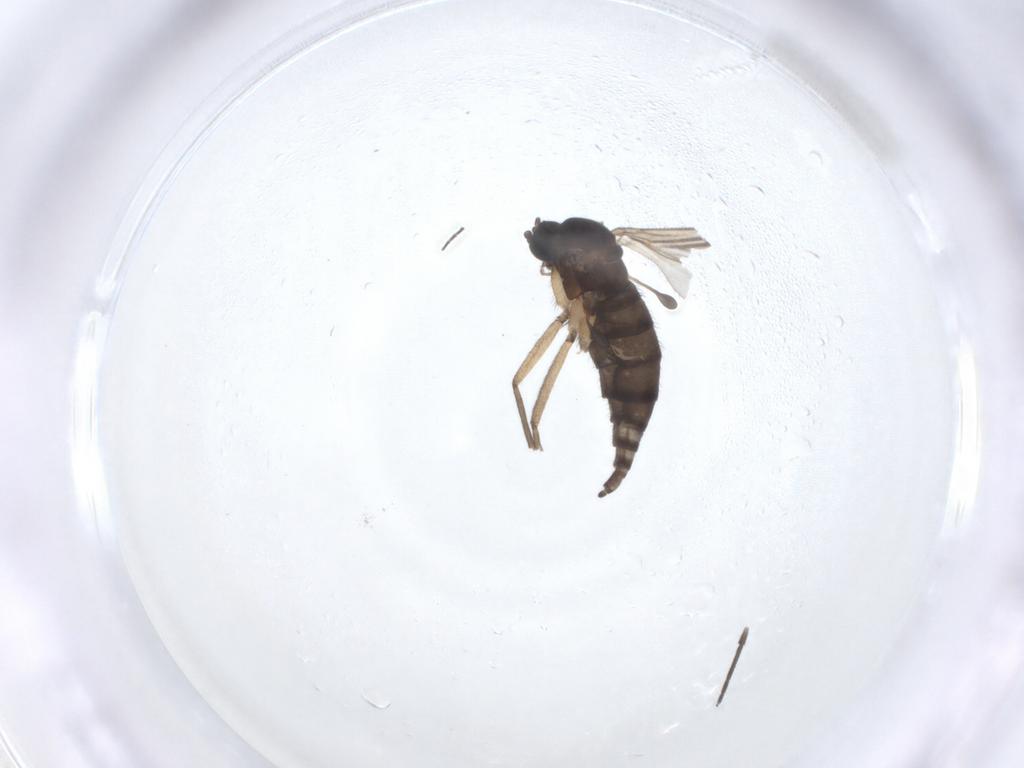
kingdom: Animalia
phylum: Arthropoda
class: Insecta
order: Diptera
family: Sciaridae
